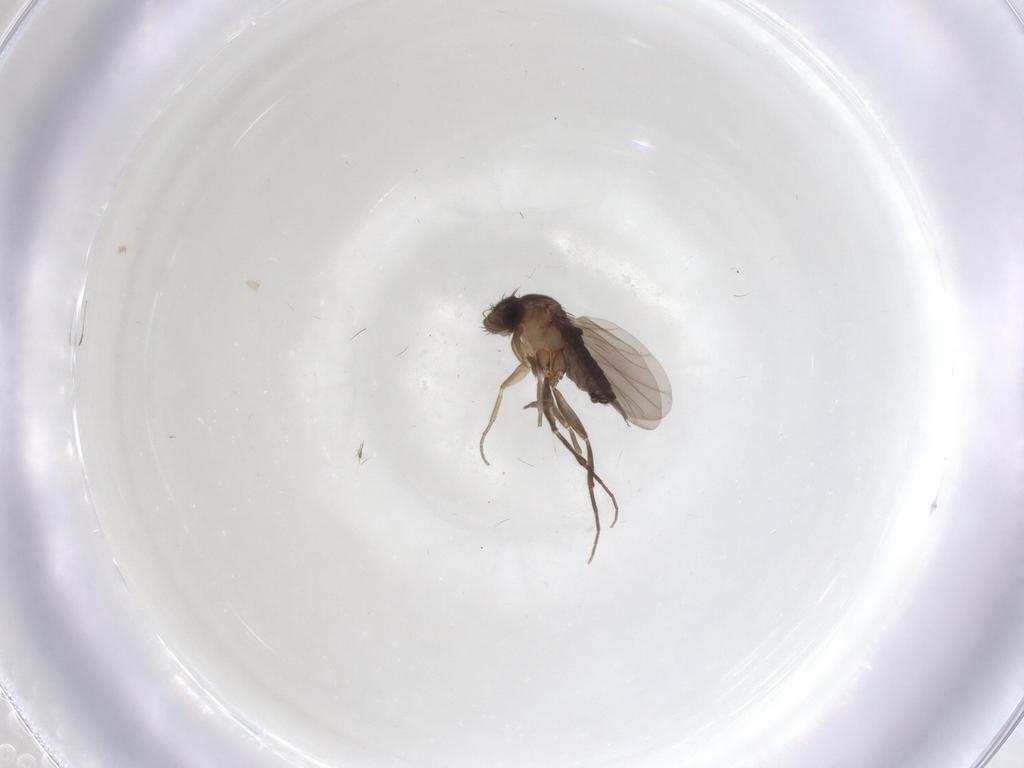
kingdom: Animalia
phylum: Arthropoda
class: Insecta
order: Diptera
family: Phoridae
